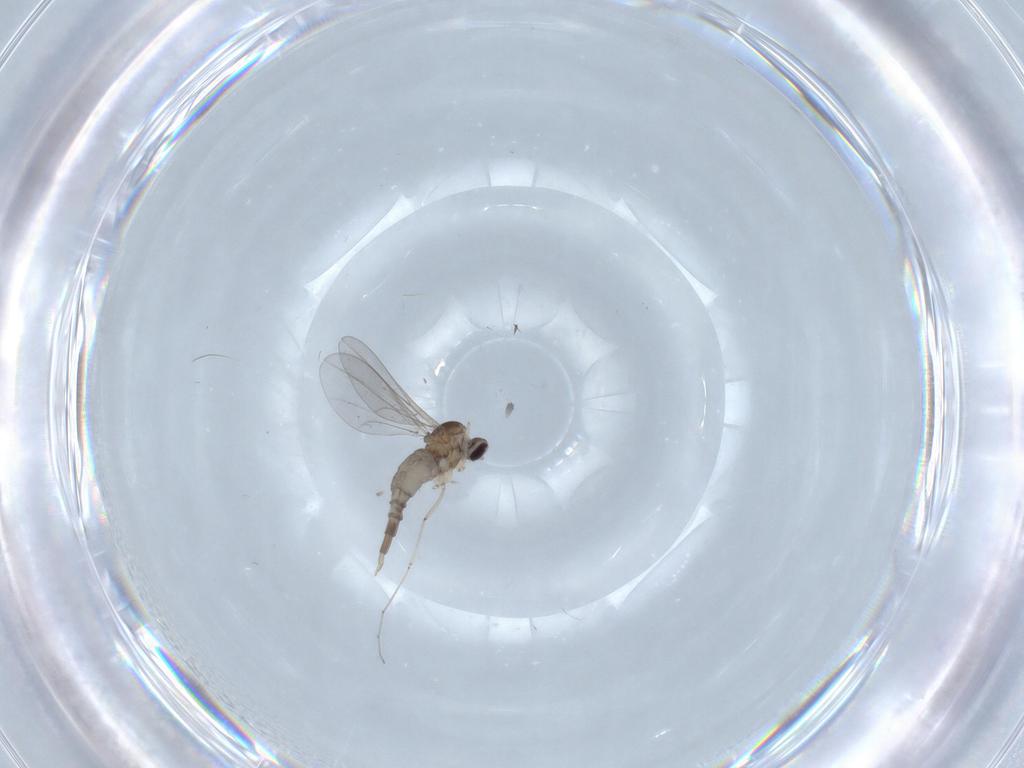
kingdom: Animalia
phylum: Arthropoda
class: Insecta
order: Diptera
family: Cecidomyiidae
